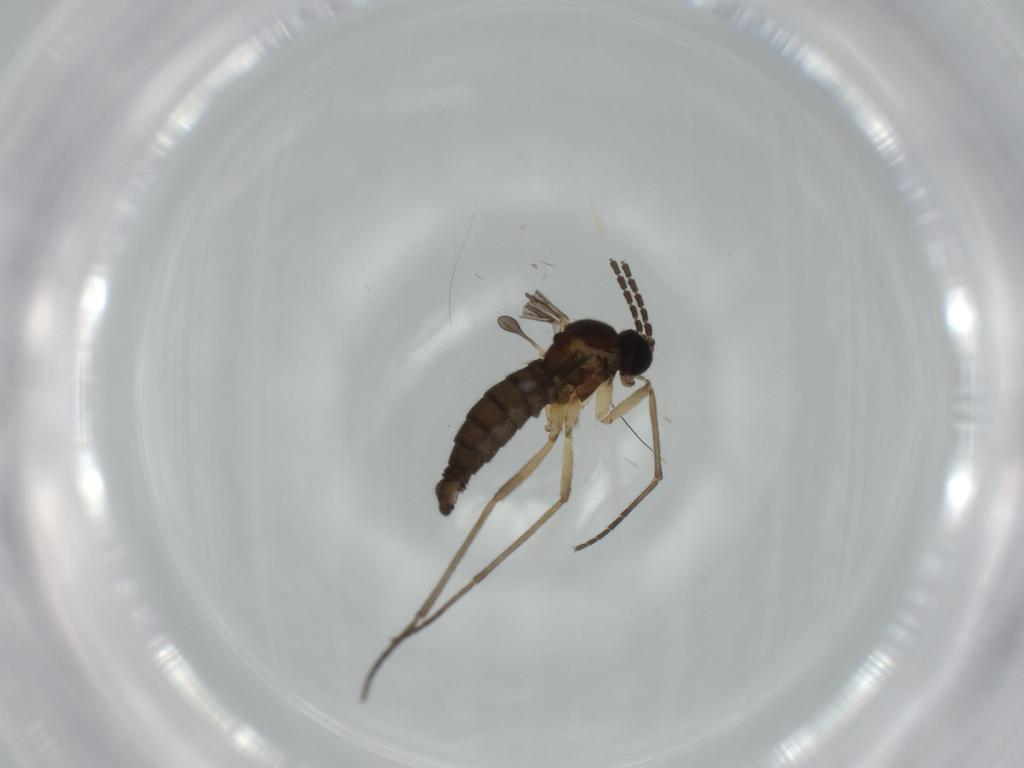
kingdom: Animalia
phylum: Arthropoda
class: Insecta
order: Diptera
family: Sciaridae
